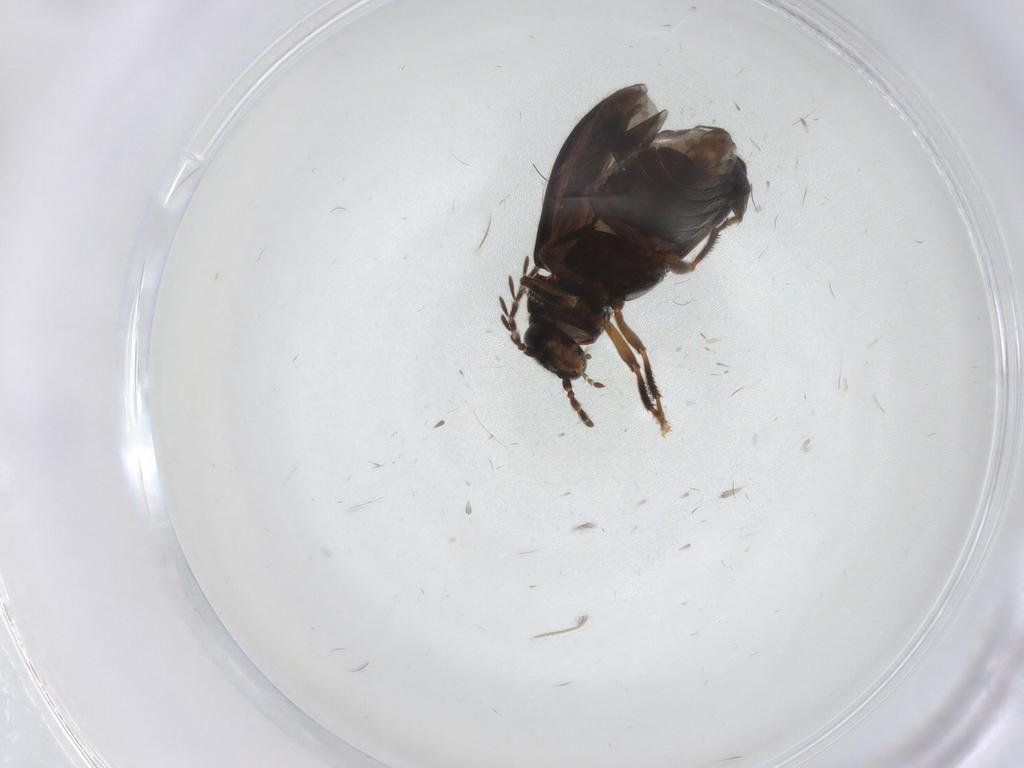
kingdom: Animalia
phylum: Arthropoda
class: Insecta
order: Coleoptera
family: Ptilodactylidae
